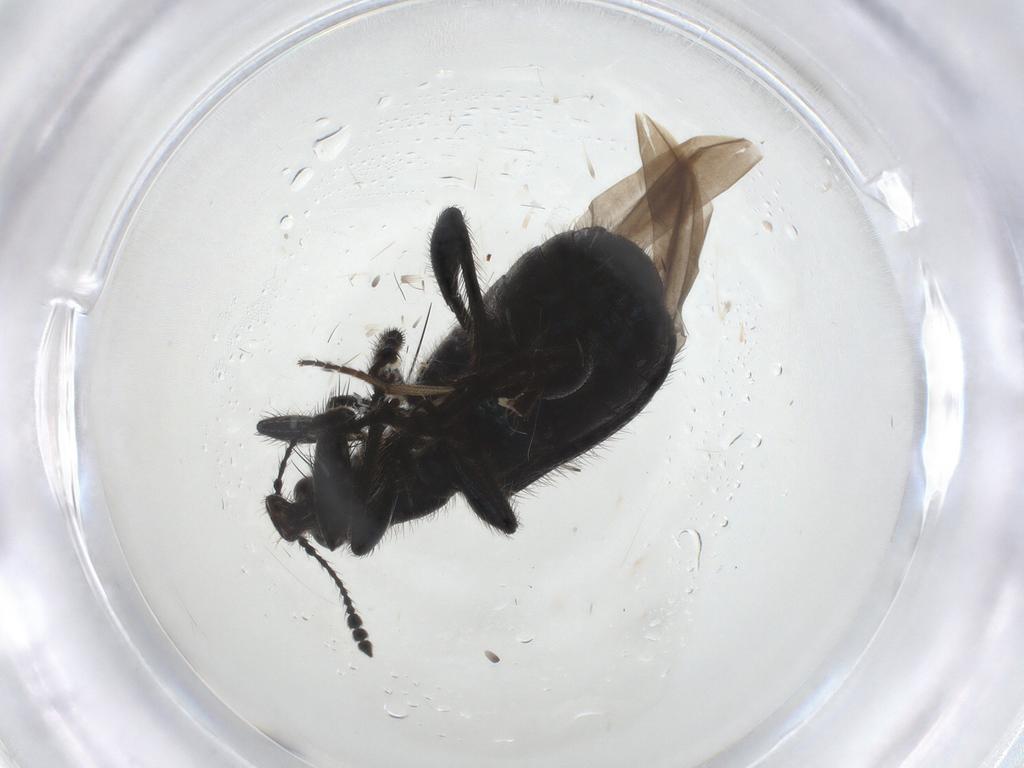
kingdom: Animalia
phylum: Arthropoda
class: Insecta
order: Coleoptera
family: Attelabidae
